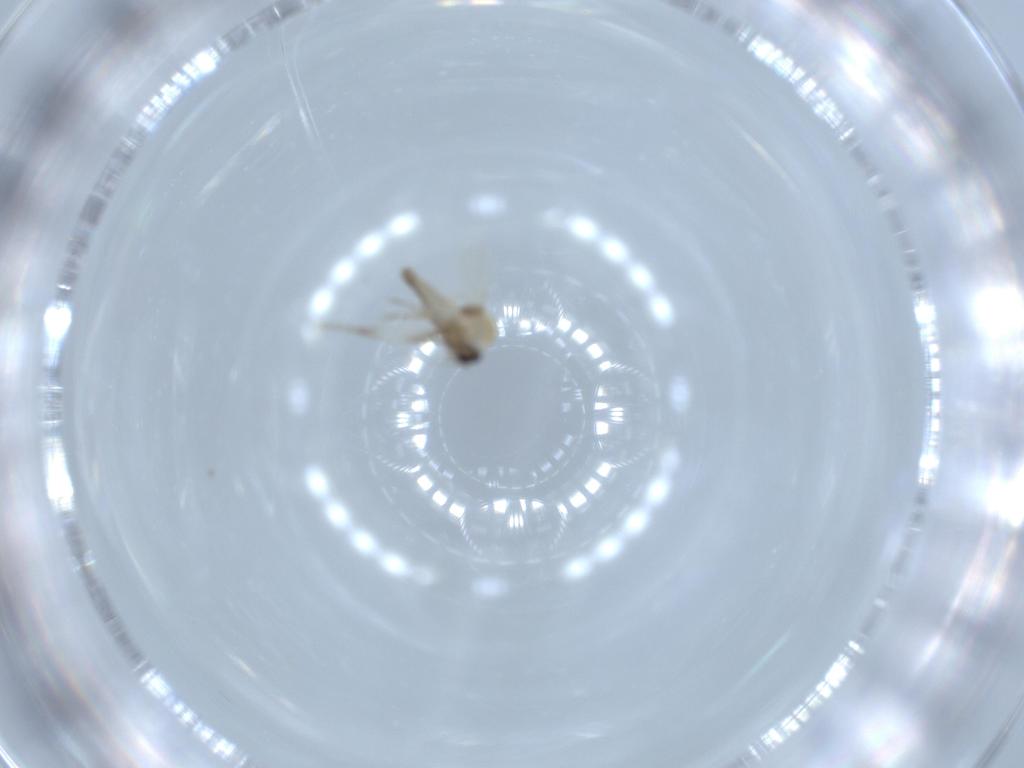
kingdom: Animalia
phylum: Arthropoda
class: Insecta
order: Diptera
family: Ceratopogonidae
